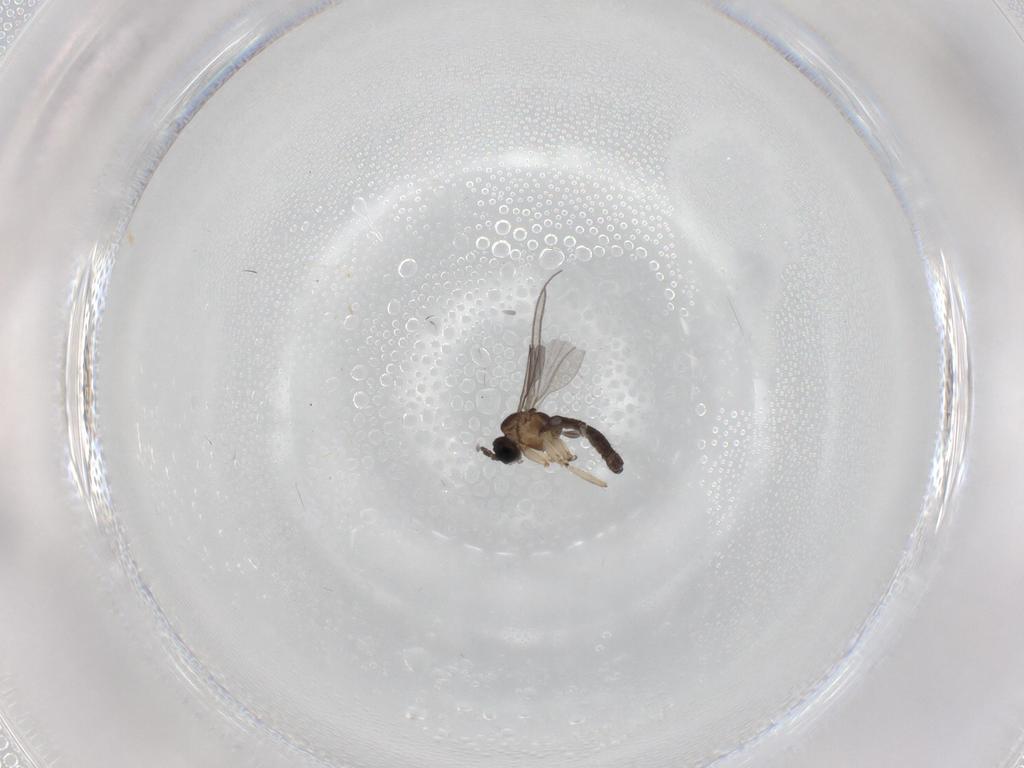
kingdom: Animalia
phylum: Arthropoda
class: Insecta
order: Diptera
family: Sciaridae
